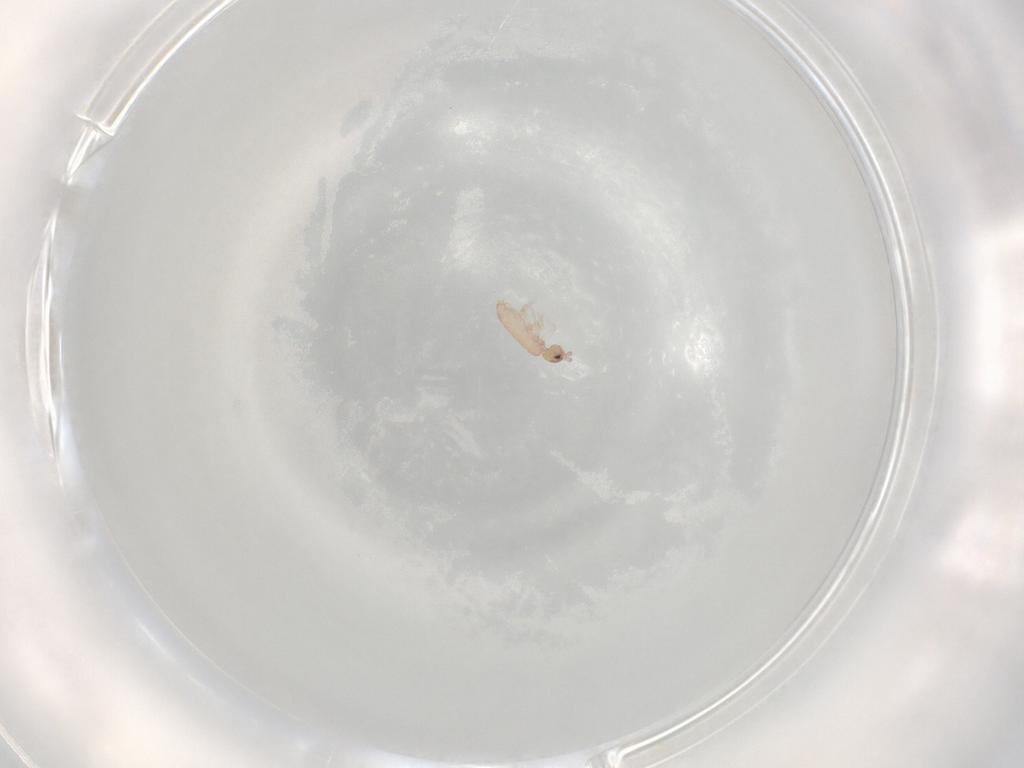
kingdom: Animalia
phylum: Arthropoda
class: Collembola
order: Entomobryomorpha
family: Tomoceridae
